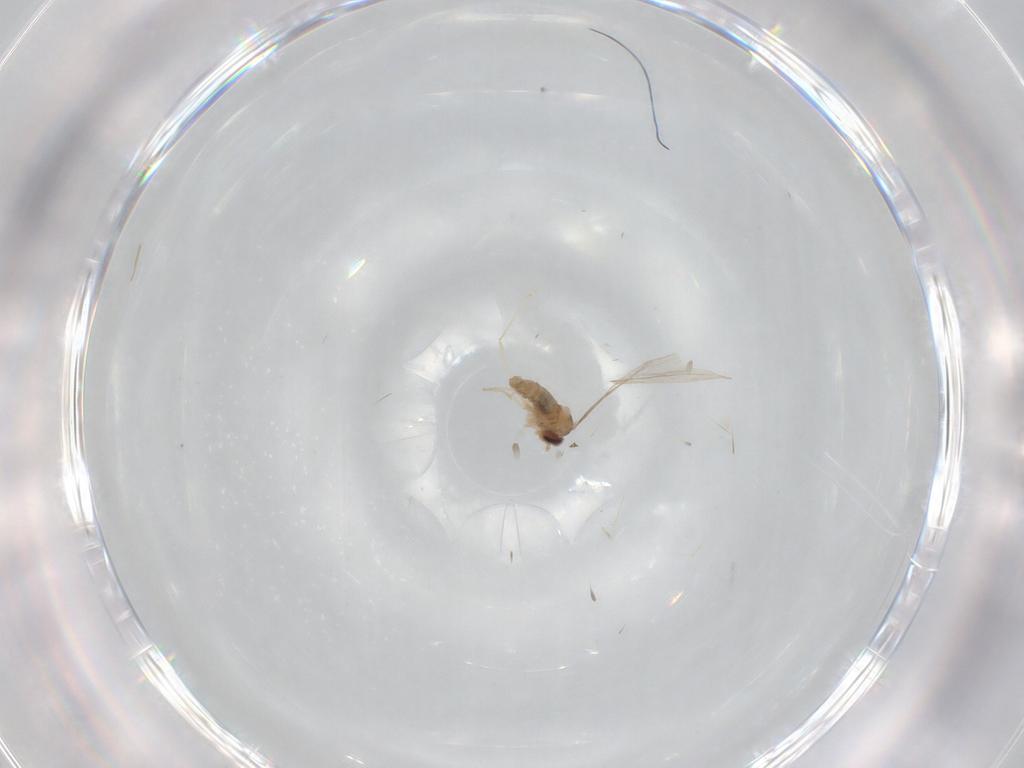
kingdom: Animalia
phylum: Arthropoda
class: Insecta
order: Diptera
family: Cecidomyiidae
